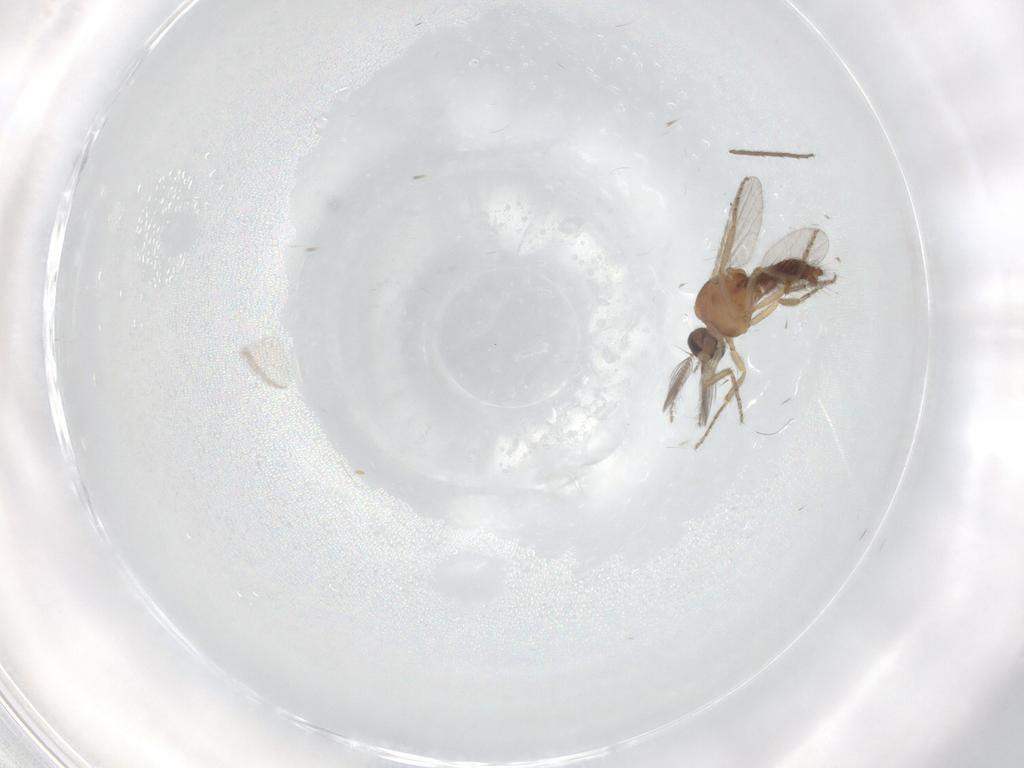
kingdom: Animalia
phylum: Arthropoda
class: Insecta
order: Diptera
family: Ceratopogonidae
